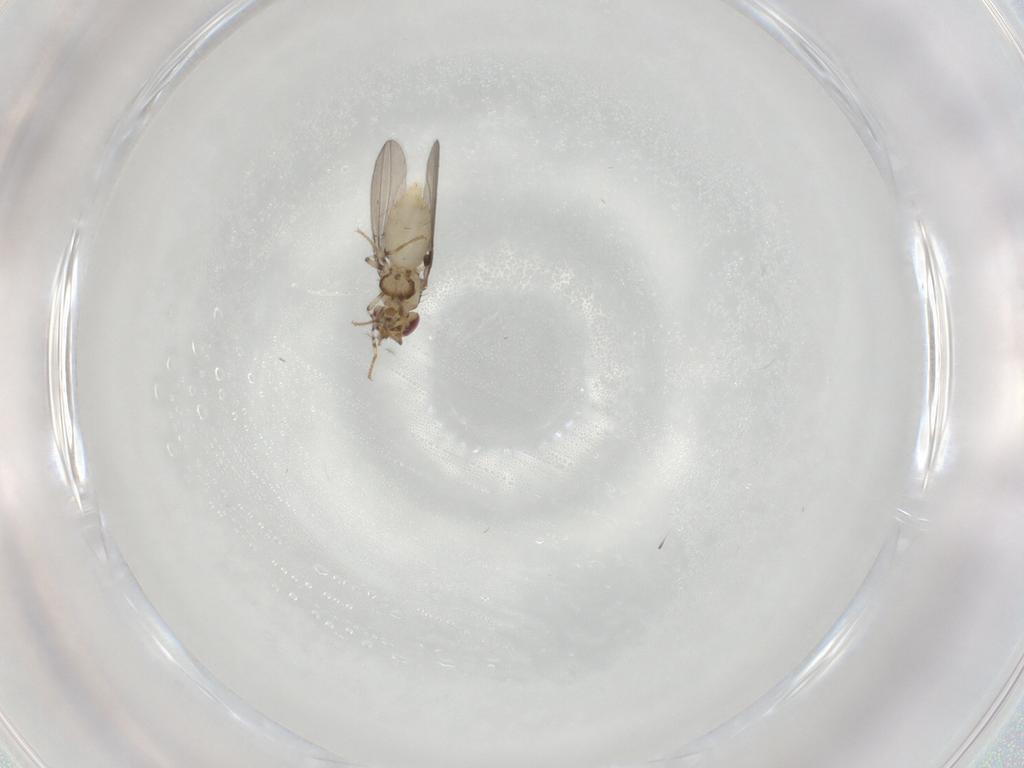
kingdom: Animalia
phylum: Arthropoda
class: Insecta
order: Diptera
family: Asteiidae
